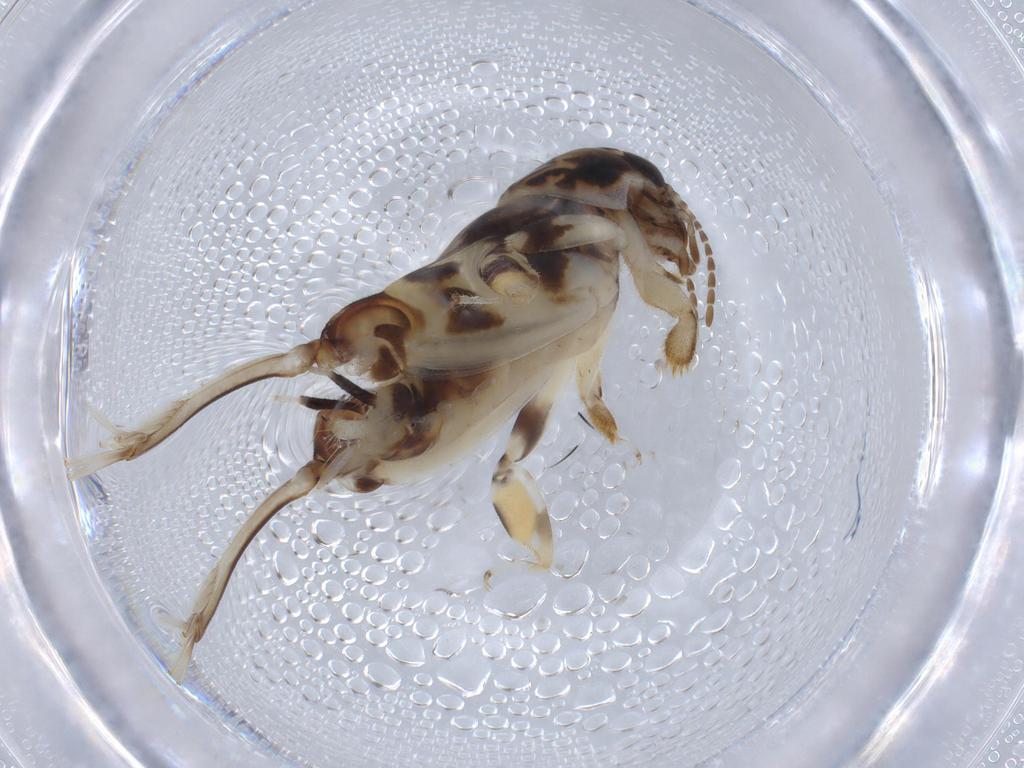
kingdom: Animalia
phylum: Arthropoda
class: Insecta
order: Orthoptera
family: Tridactylidae
